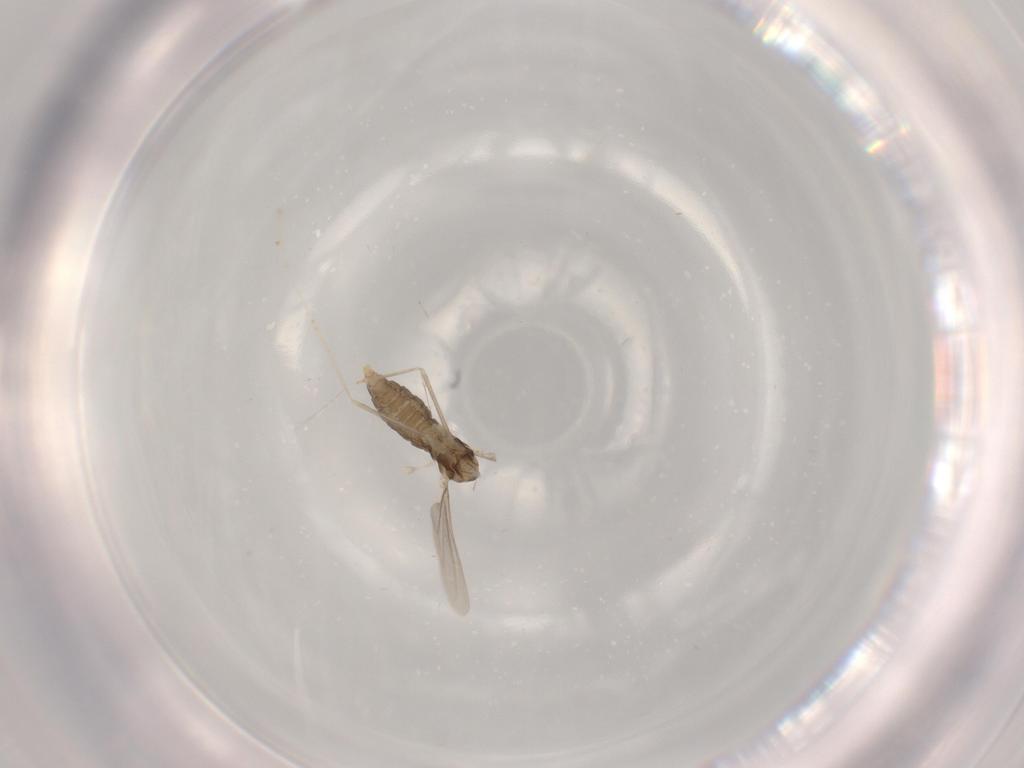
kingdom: Animalia
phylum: Arthropoda
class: Insecta
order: Diptera
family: Cecidomyiidae
